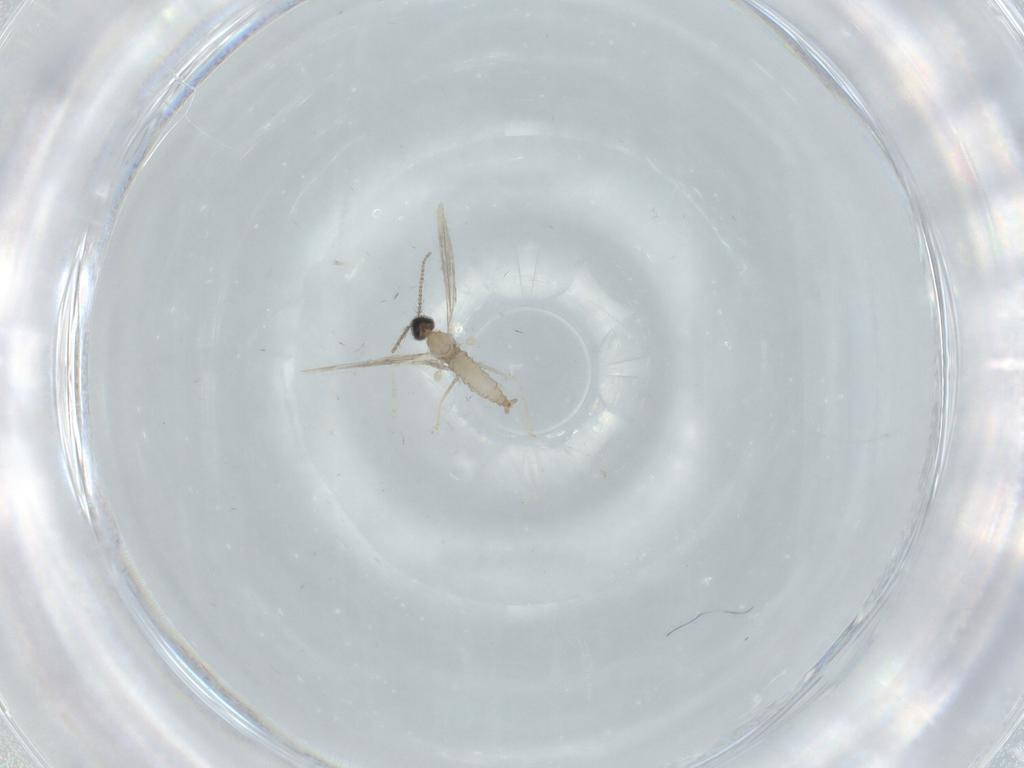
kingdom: Animalia
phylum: Arthropoda
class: Insecta
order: Diptera
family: Cecidomyiidae
